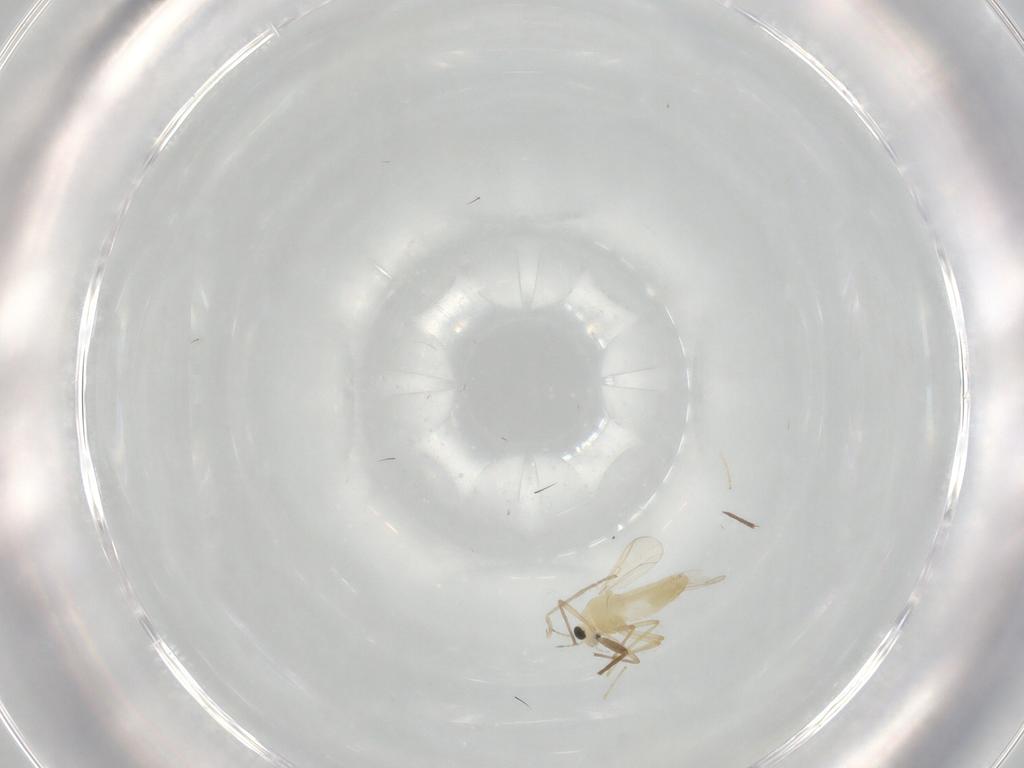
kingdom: Animalia
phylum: Arthropoda
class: Insecta
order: Diptera
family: Chironomidae
